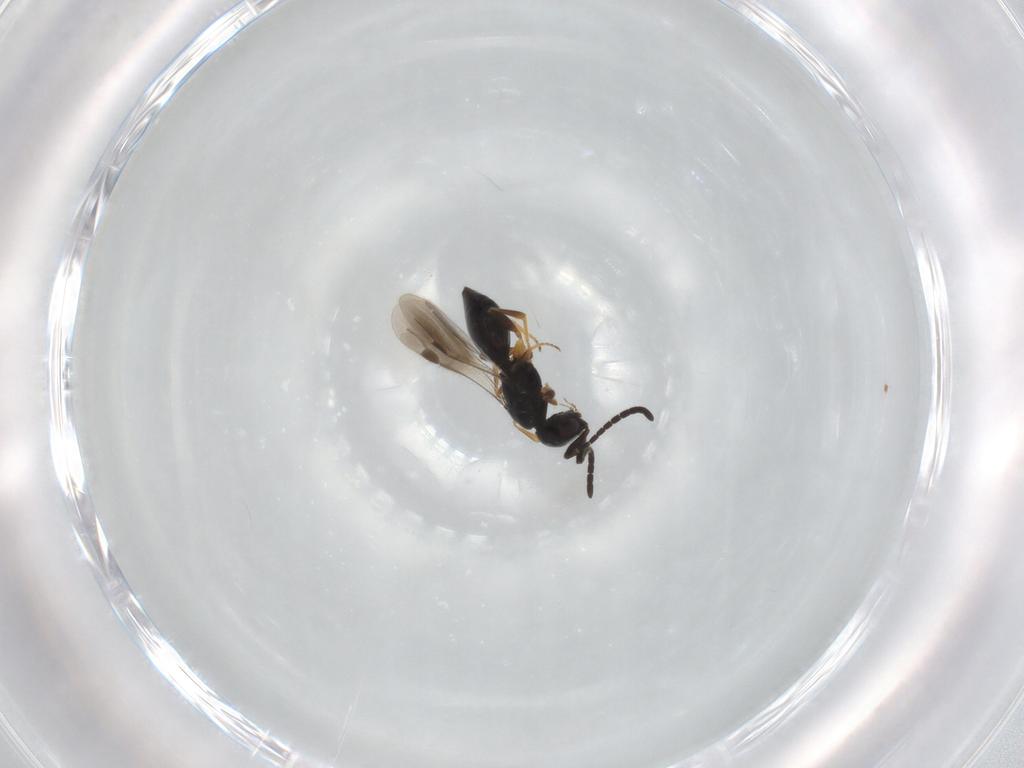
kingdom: Animalia
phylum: Arthropoda
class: Insecta
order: Hymenoptera
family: Megaspilidae
